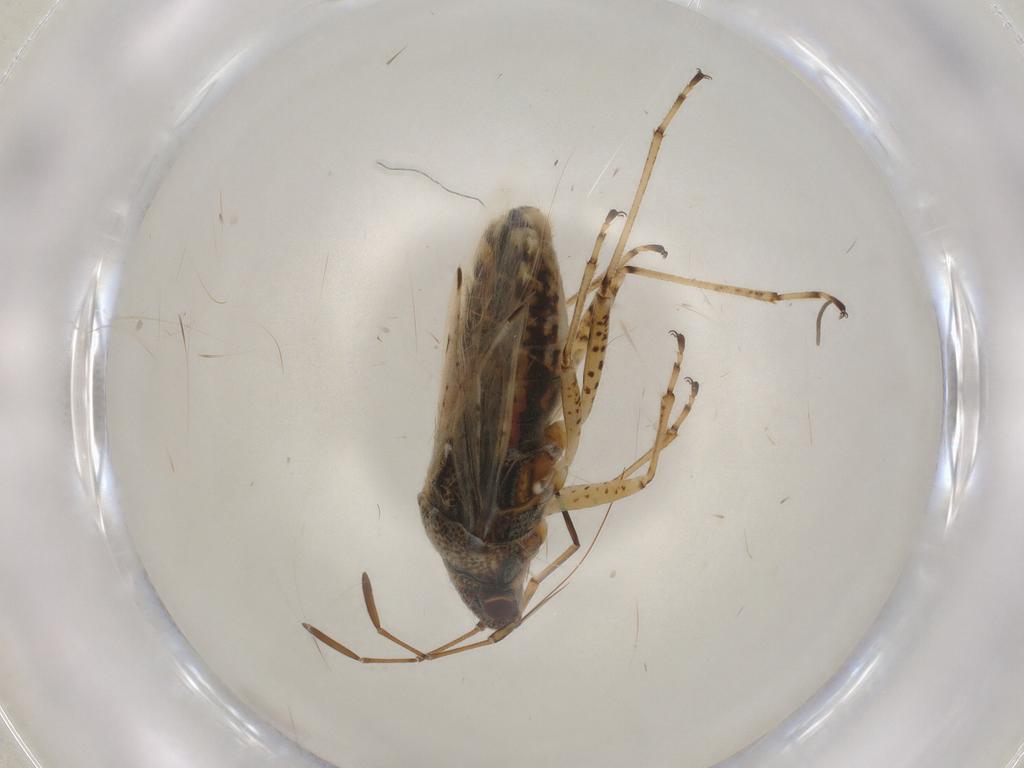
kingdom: Animalia
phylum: Arthropoda
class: Insecta
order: Hemiptera
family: Lygaeidae
